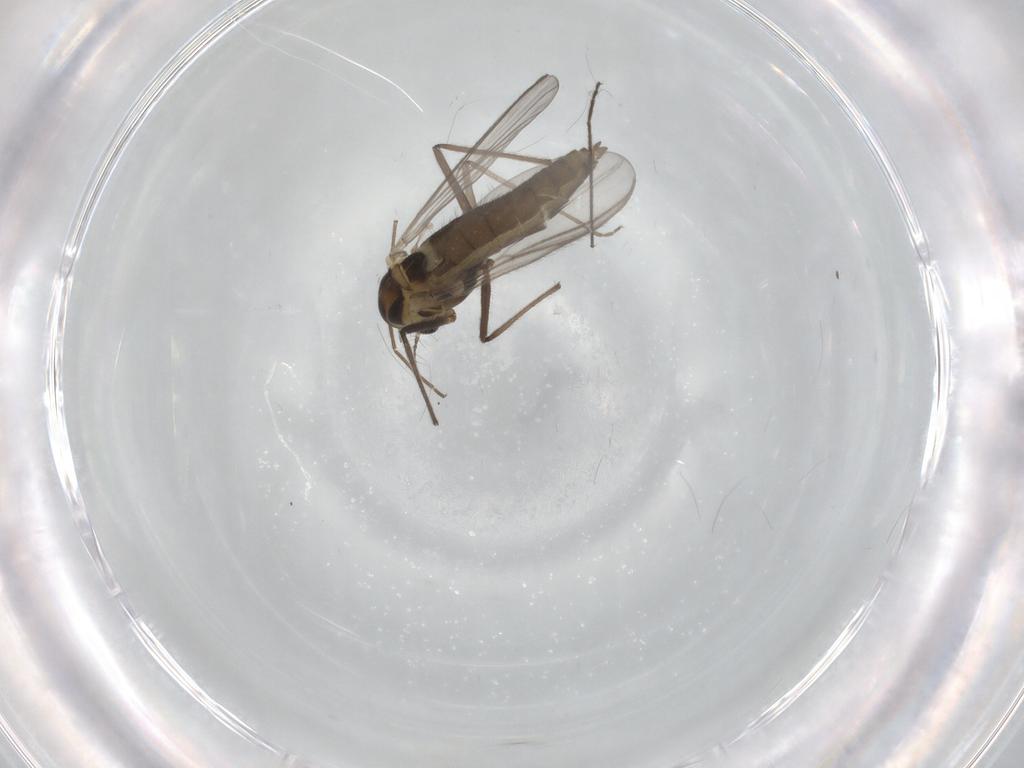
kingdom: Animalia
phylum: Arthropoda
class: Insecta
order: Diptera
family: Chironomidae
